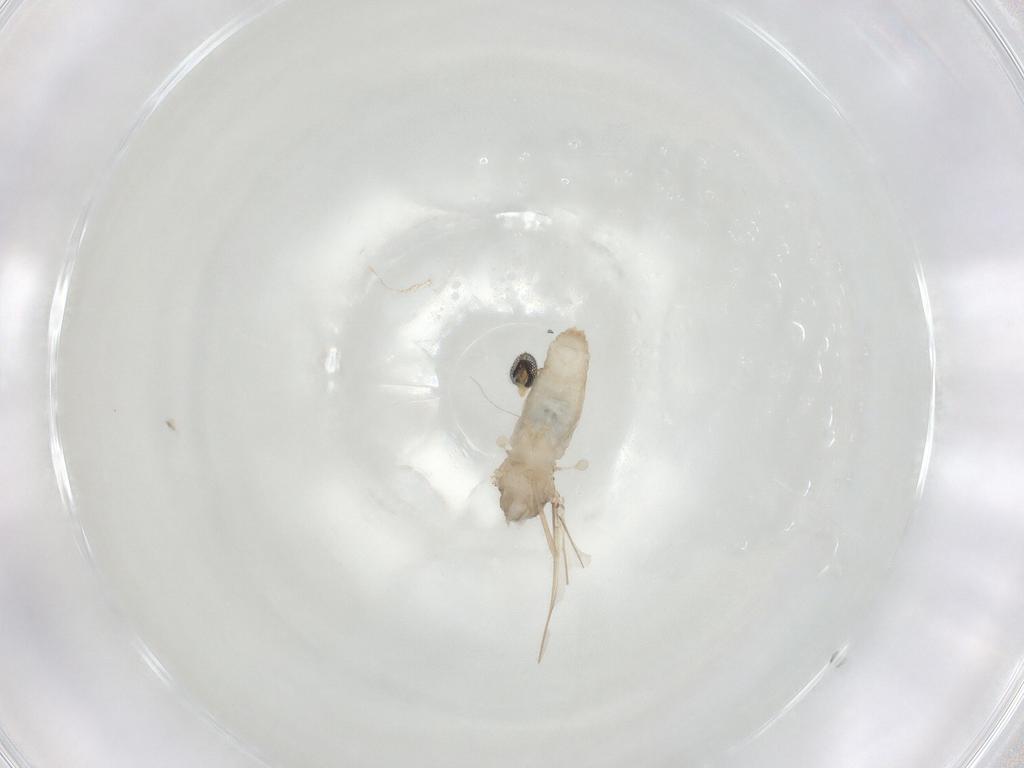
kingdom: Animalia
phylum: Arthropoda
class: Insecta
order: Diptera
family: Cecidomyiidae
